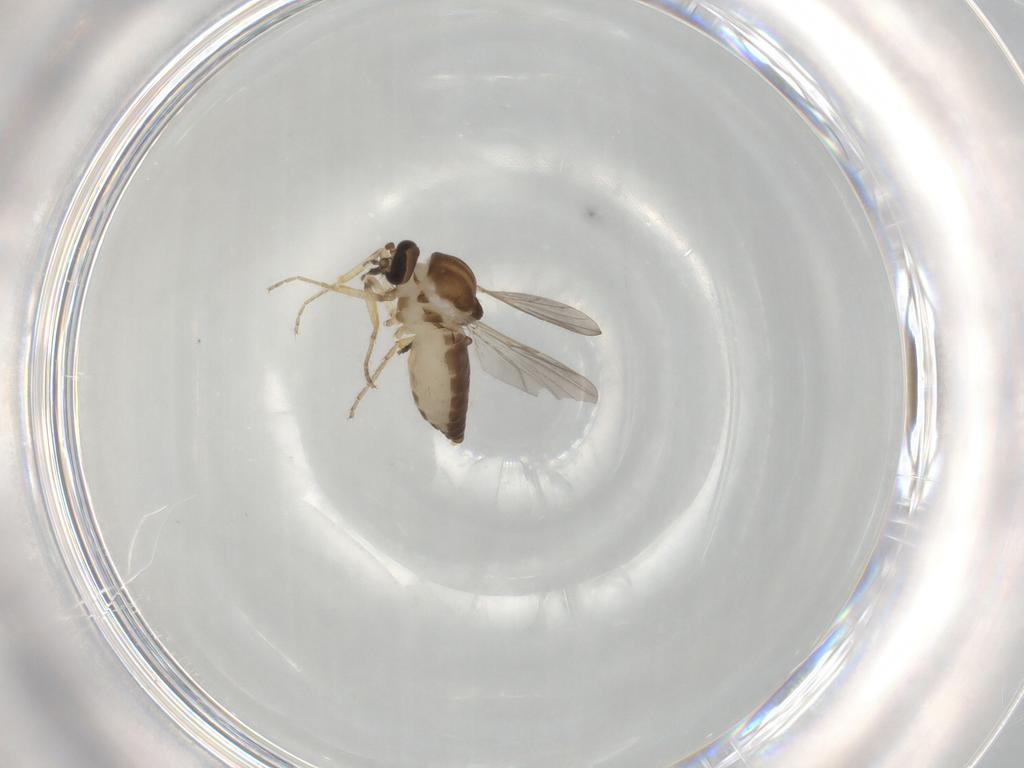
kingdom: Animalia
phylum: Arthropoda
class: Insecta
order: Diptera
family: Ceratopogonidae
